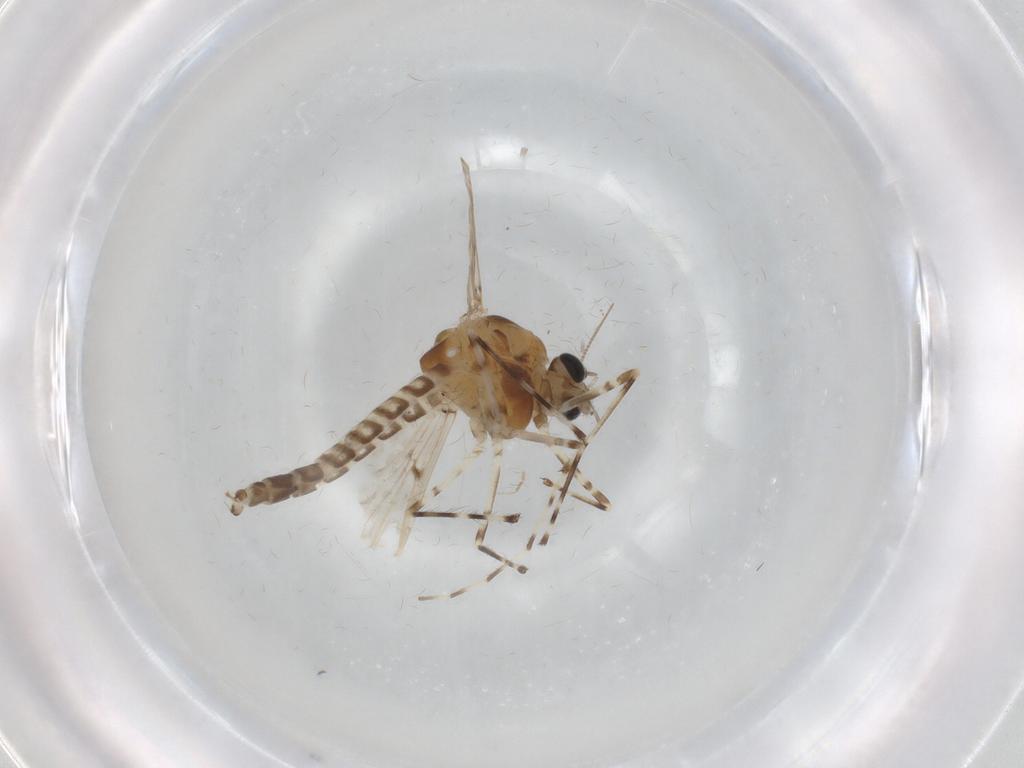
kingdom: Animalia
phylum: Arthropoda
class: Insecta
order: Diptera
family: Chironomidae
